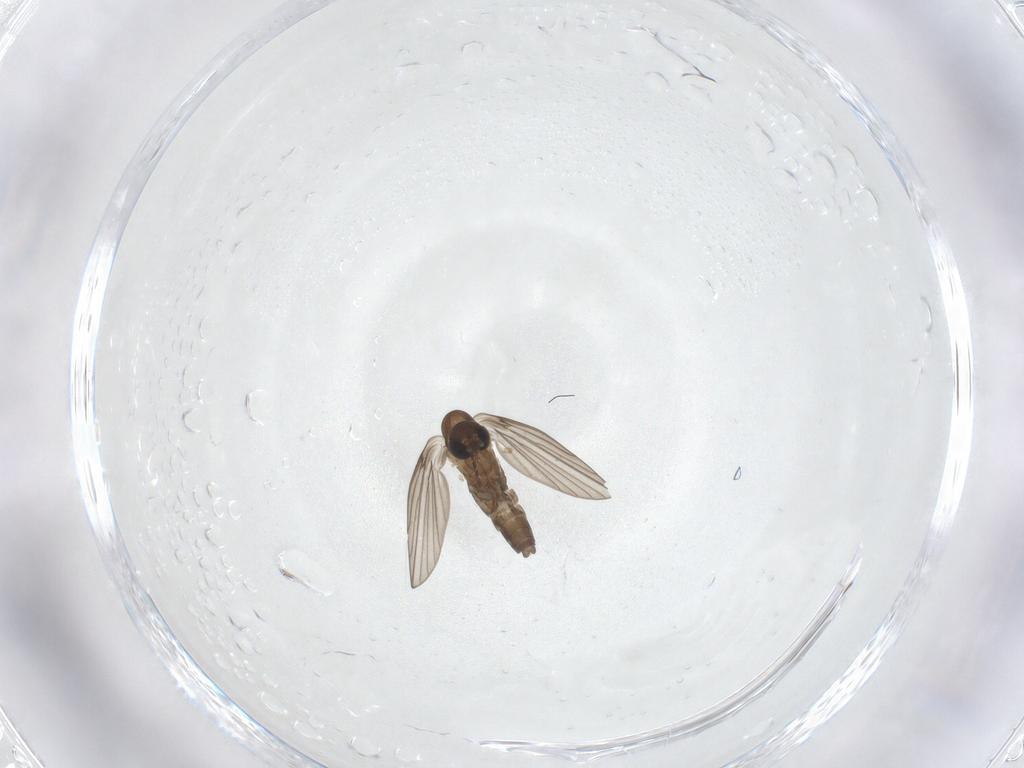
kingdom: Animalia
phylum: Arthropoda
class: Insecta
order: Diptera
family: Psychodidae
